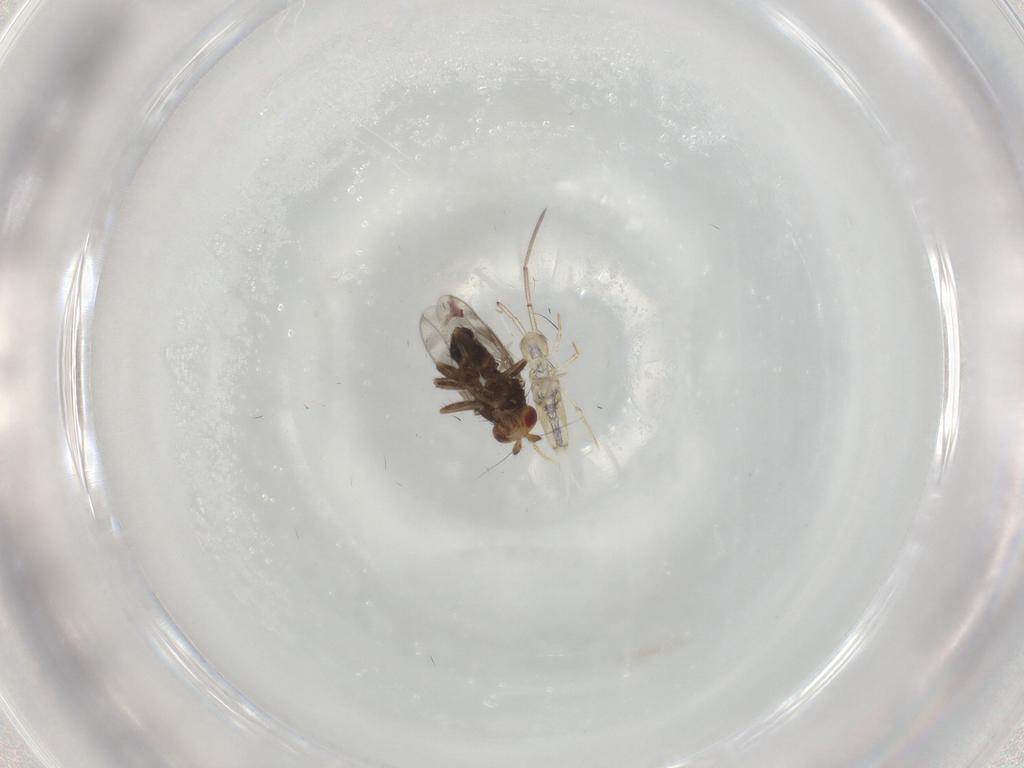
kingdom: Animalia
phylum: Arthropoda
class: Insecta
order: Diptera
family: Tabanidae
